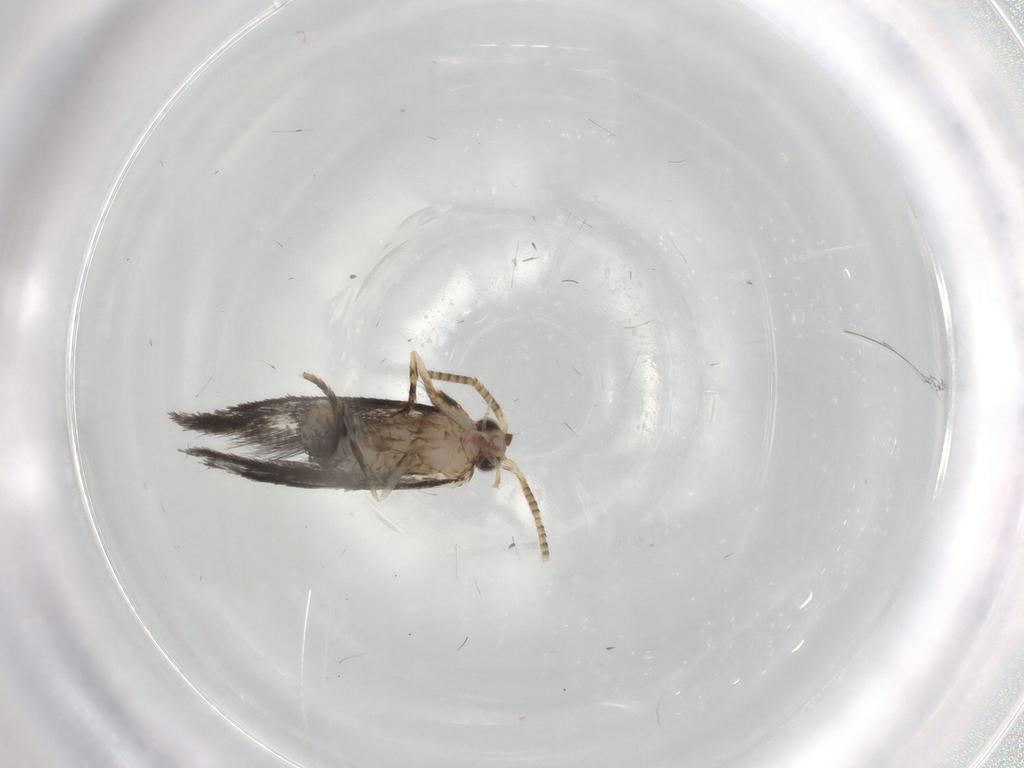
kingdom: Animalia
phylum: Arthropoda
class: Insecta
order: Lepidoptera
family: Tineidae
